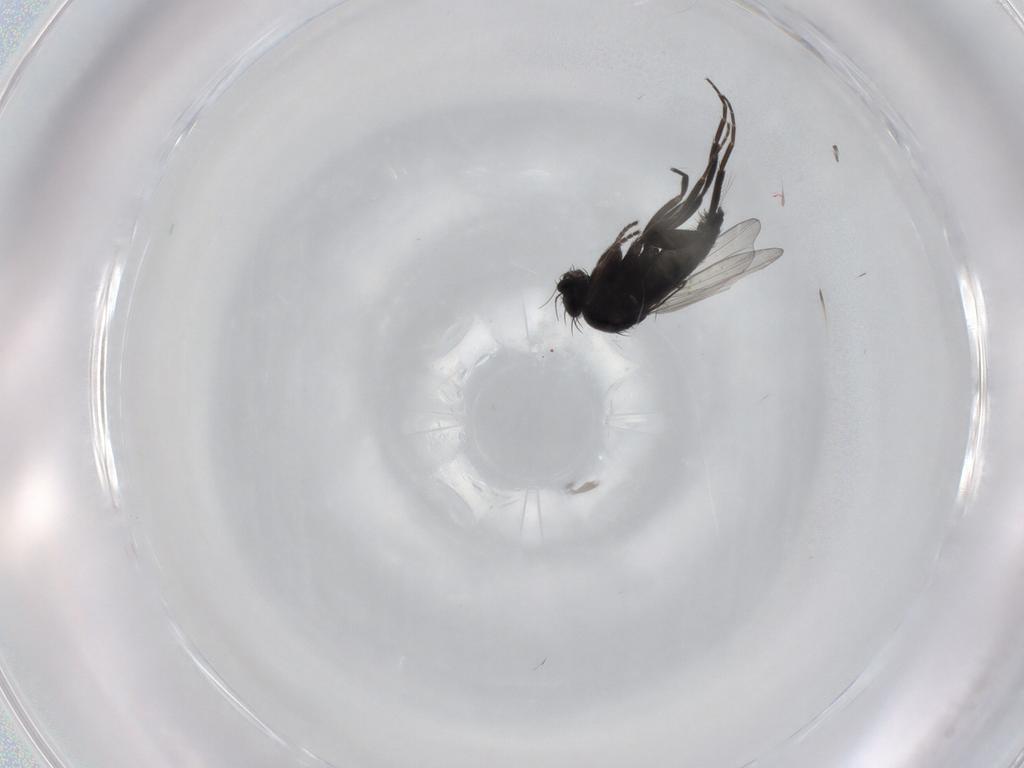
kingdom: Animalia
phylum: Arthropoda
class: Insecta
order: Diptera
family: Phoridae
